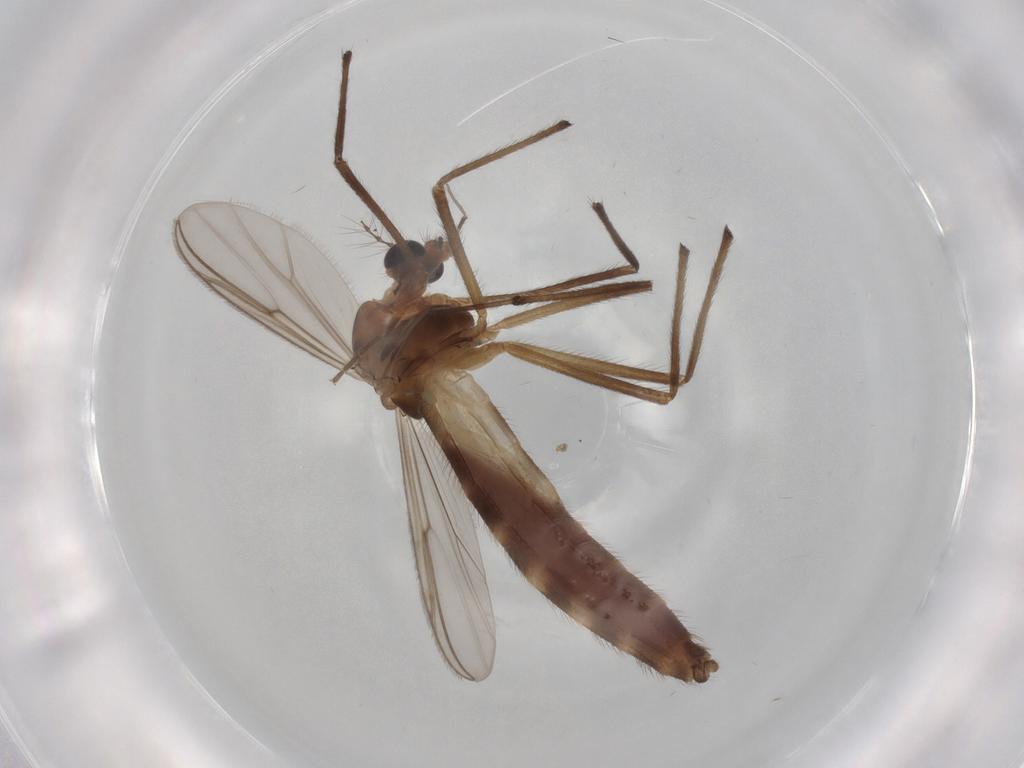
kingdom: Animalia
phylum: Arthropoda
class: Insecta
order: Diptera
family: Chironomidae
